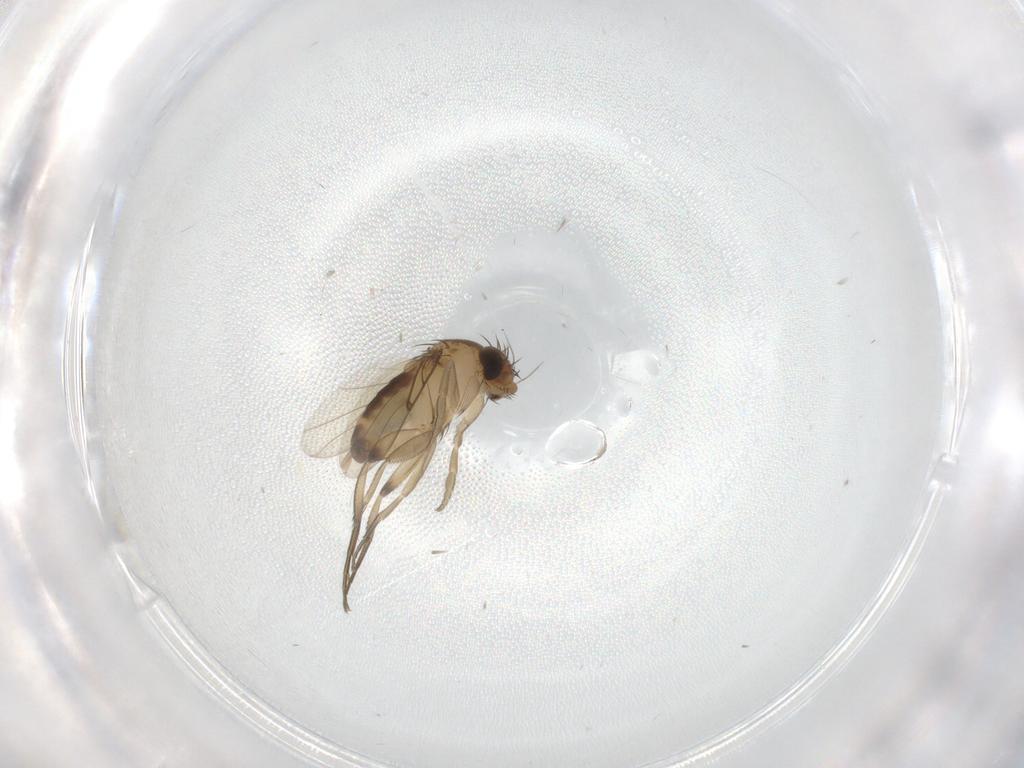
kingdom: Animalia
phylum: Arthropoda
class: Insecta
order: Diptera
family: Phoridae
